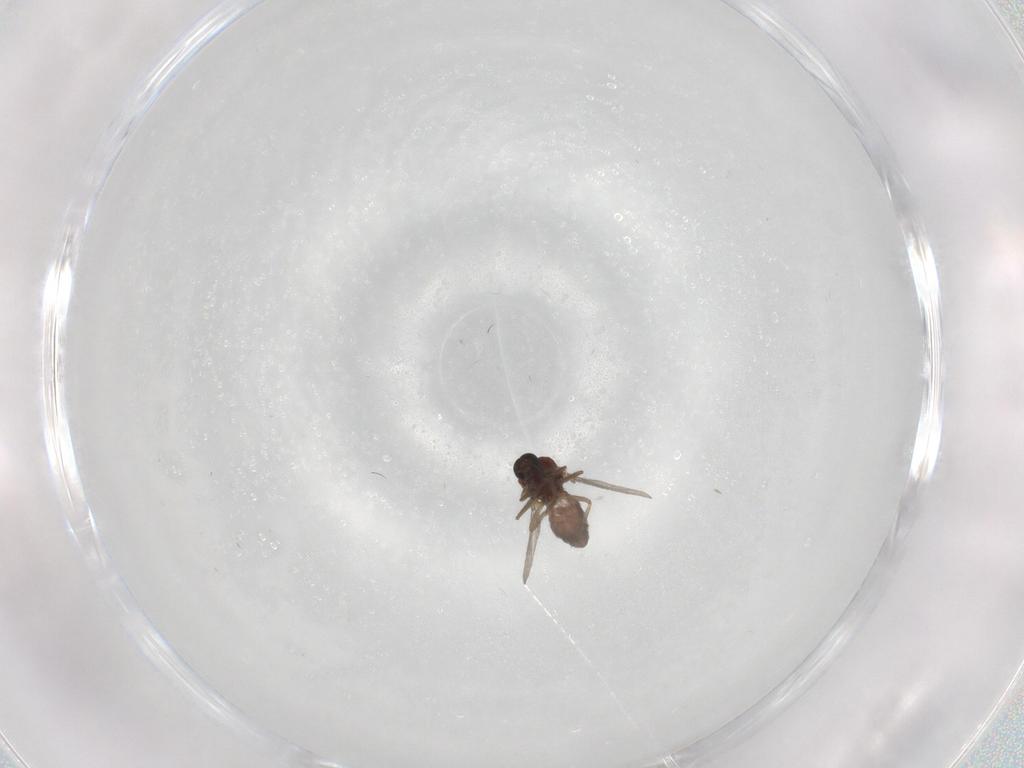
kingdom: Animalia
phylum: Arthropoda
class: Insecta
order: Diptera
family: Ceratopogonidae
